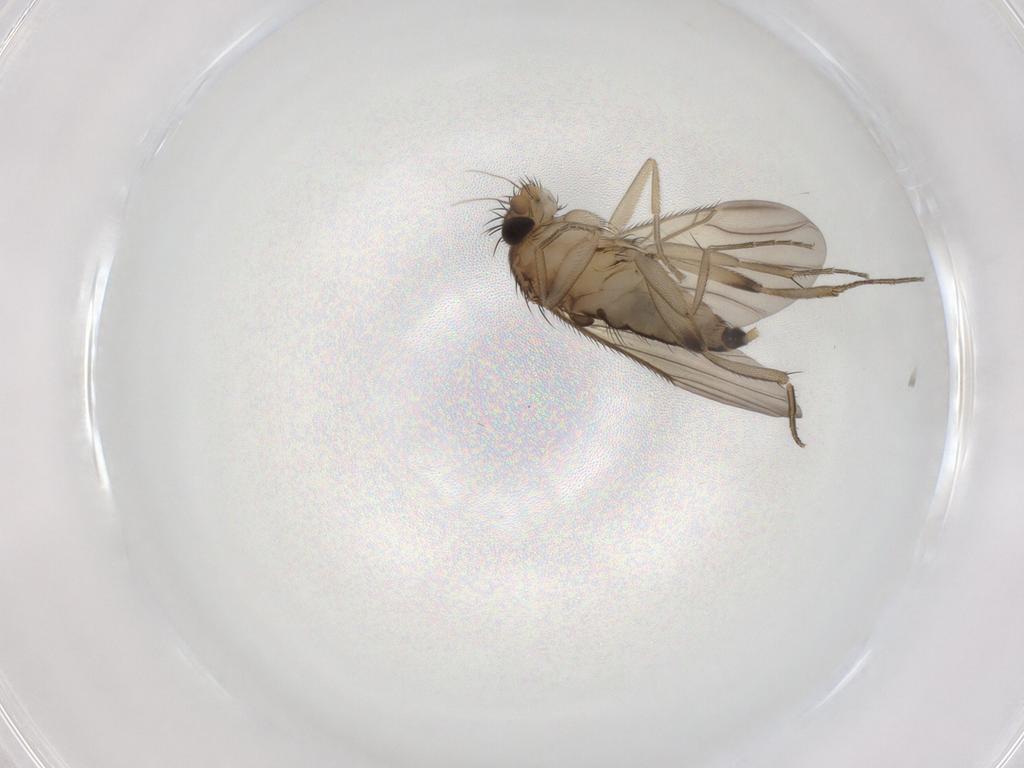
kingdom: Animalia
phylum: Arthropoda
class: Insecta
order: Diptera
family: Phoridae
